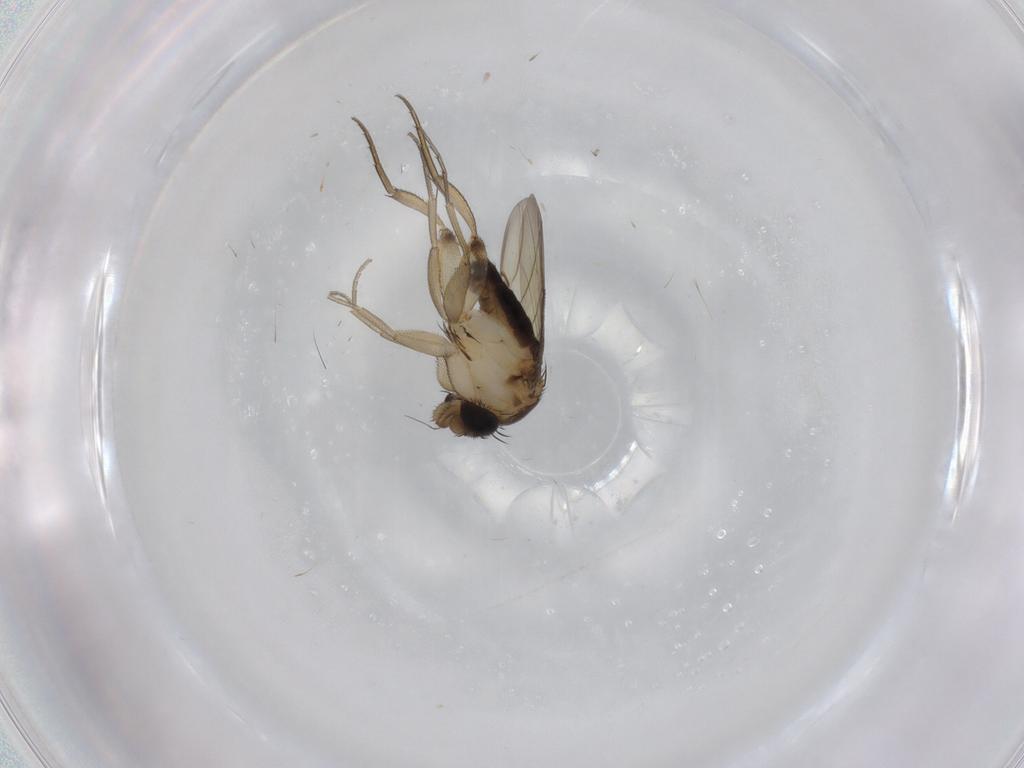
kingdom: Animalia
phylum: Arthropoda
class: Insecta
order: Diptera
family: Phoridae
